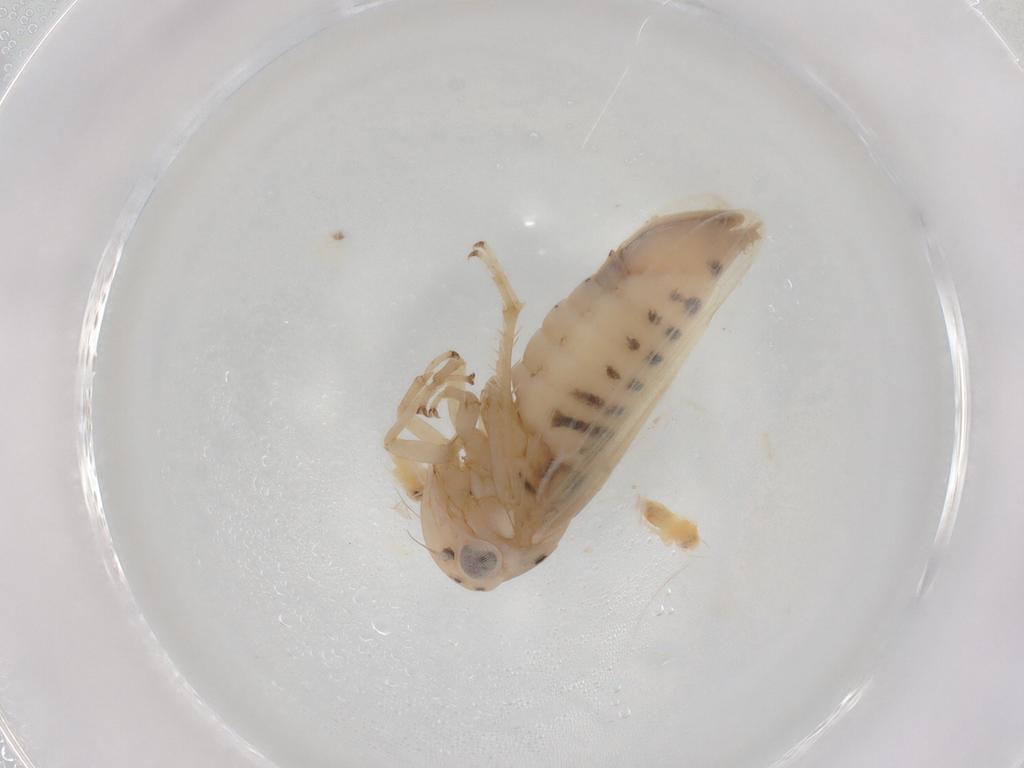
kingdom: Animalia
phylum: Arthropoda
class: Insecta
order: Hemiptera
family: Cicadellidae
